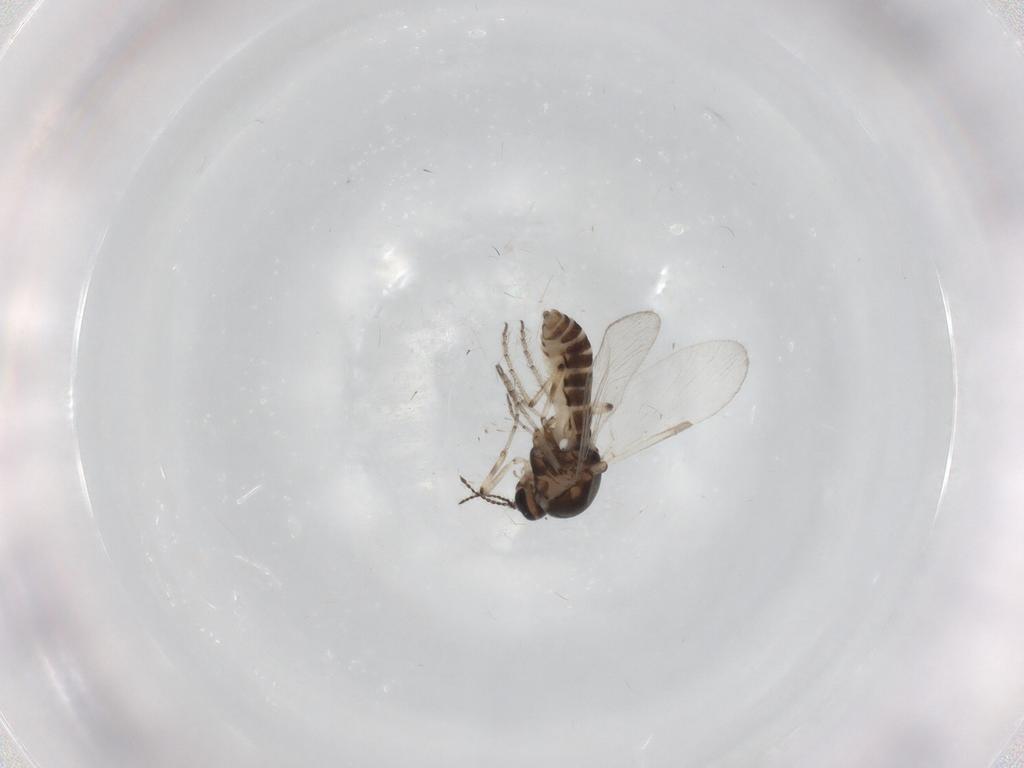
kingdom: Animalia
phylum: Arthropoda
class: Insecta
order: Diptera
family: Ceratopogonidae
